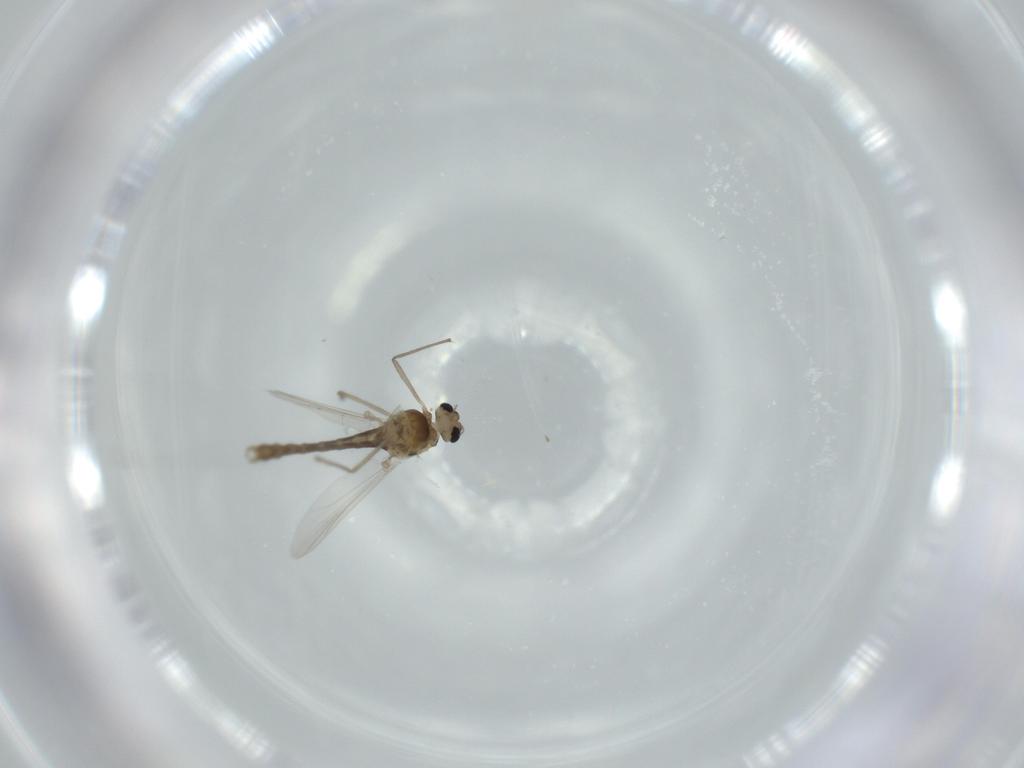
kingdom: Animalia
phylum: Arthropoda
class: Insecta
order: Diptera
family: Chironomidae
